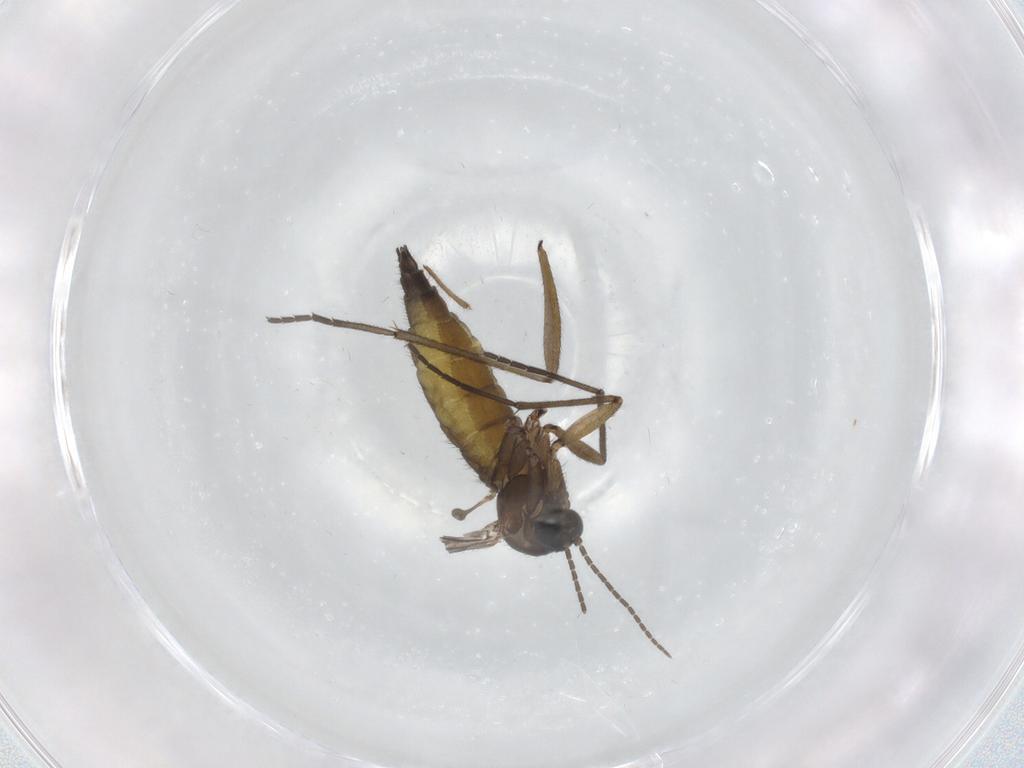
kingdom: Animalia
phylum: Arthropoda
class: Insecta
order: Diptera
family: Sciaridae
